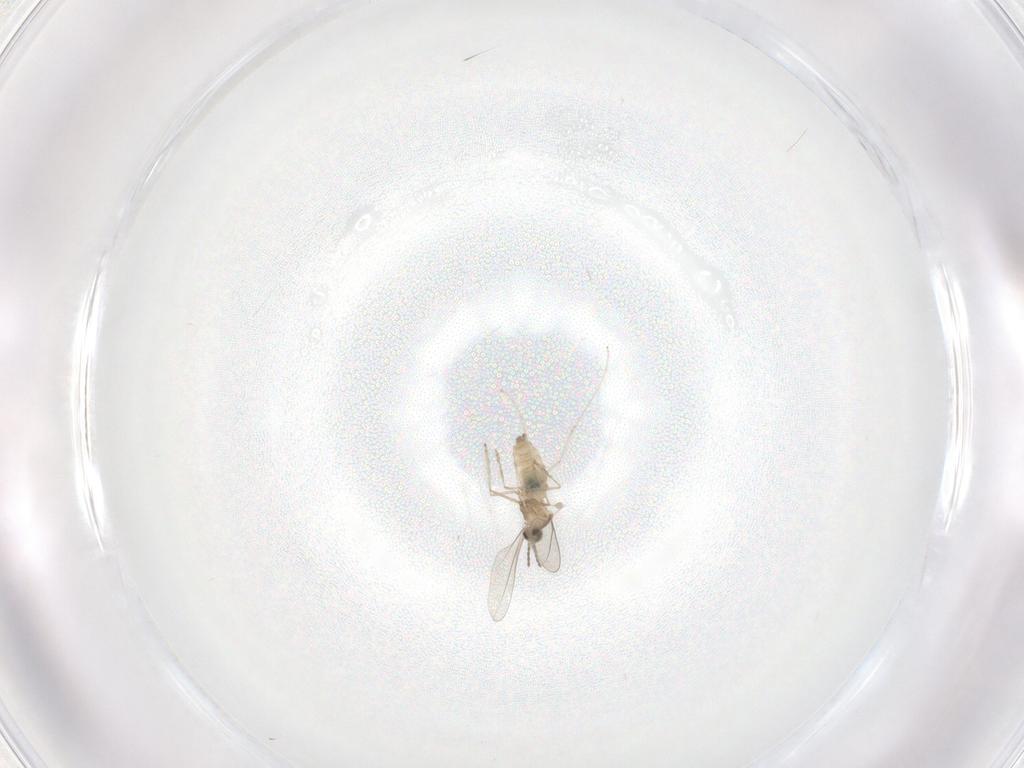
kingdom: Animalia
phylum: Arthropoda
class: Insecta
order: Diptera
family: Cecidomyiidae
